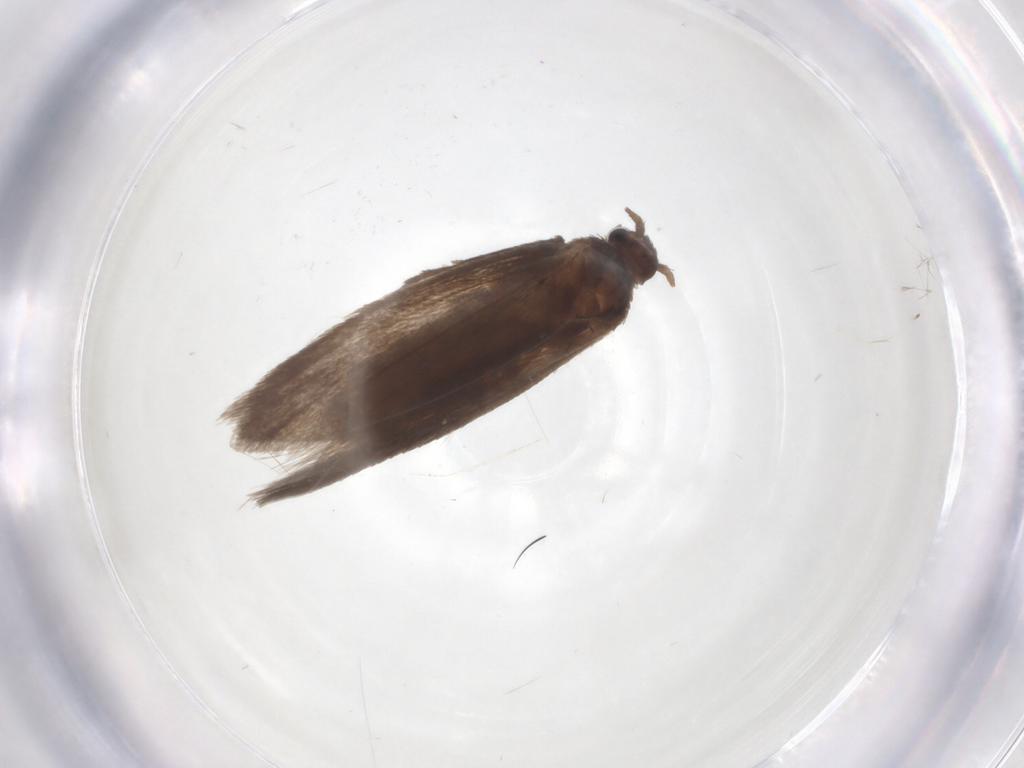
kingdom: Animalia
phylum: Arthropoda
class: Insecta
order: Lepidoptera
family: Limacodidae
